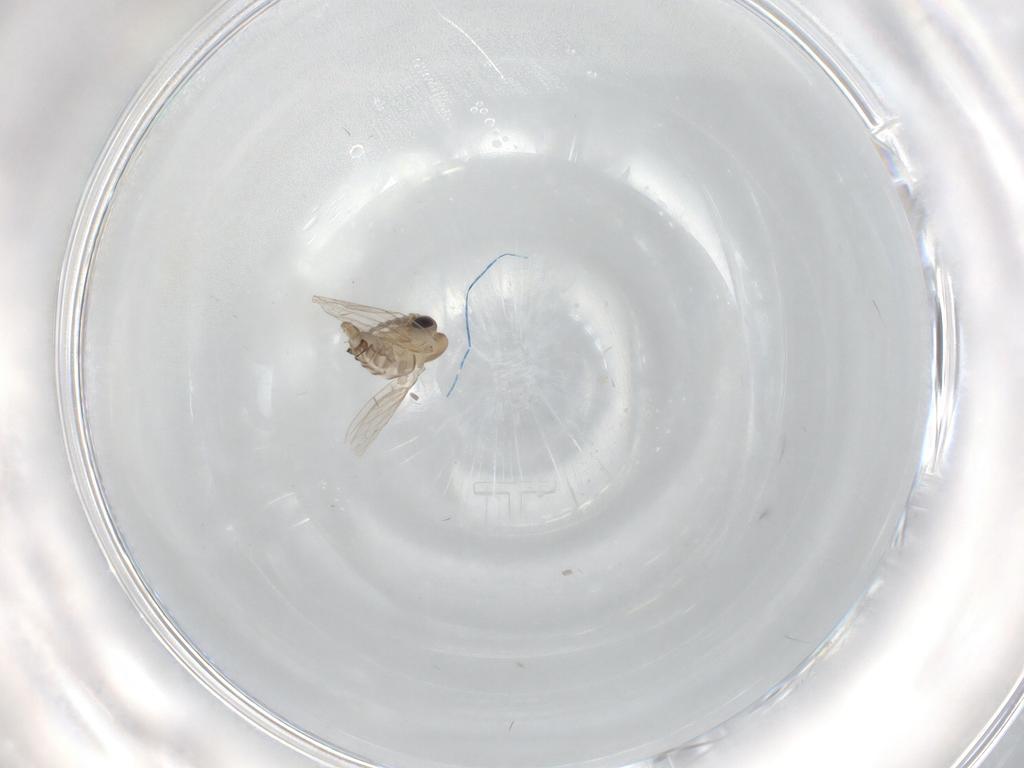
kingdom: Animalia
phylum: Arthropoda
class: Insecta
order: Diptera
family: Psychodidae
